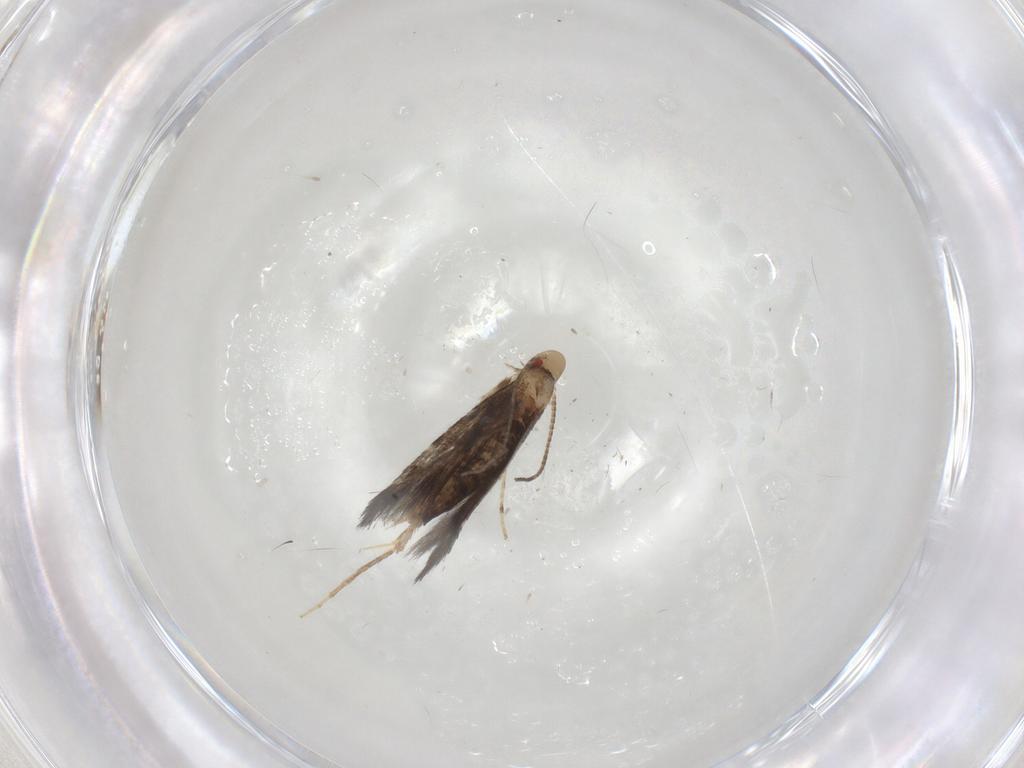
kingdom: Animalia
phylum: Arthropoda
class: Insecta
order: Lepidoptera
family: Gracillariidae
